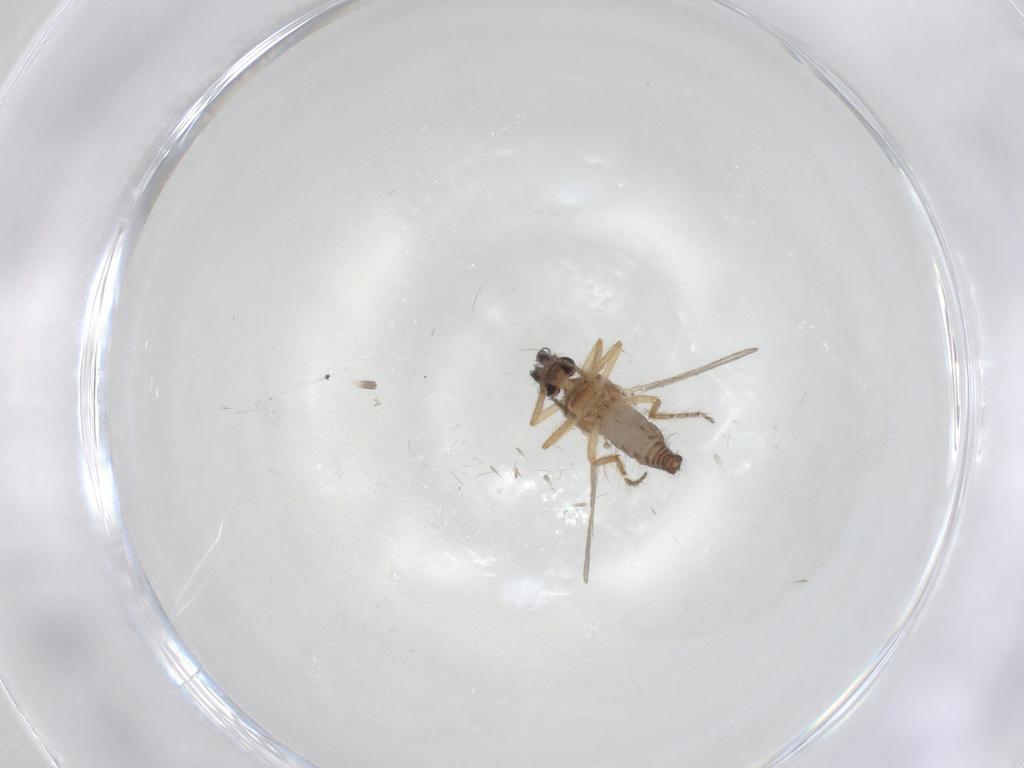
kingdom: Animalia
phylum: Arthropoda
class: Insecta
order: Diptera
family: Ceratopogonidae
